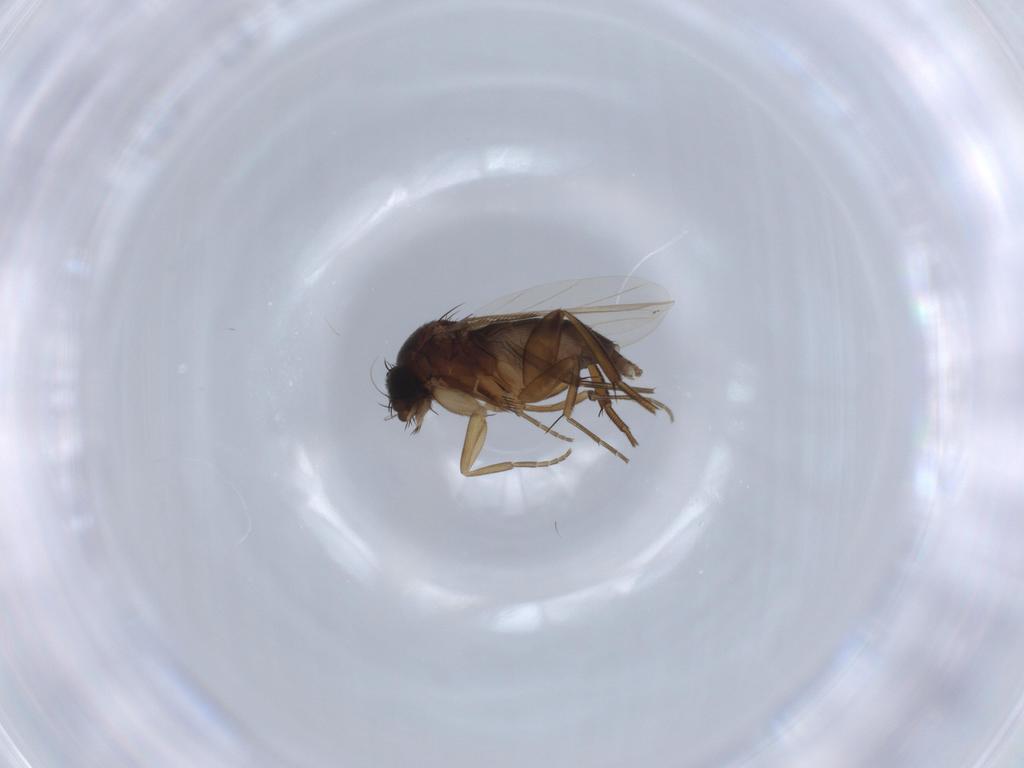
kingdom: Animalia
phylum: Arthropoda
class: Insecta
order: Diptera
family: Phoridae
